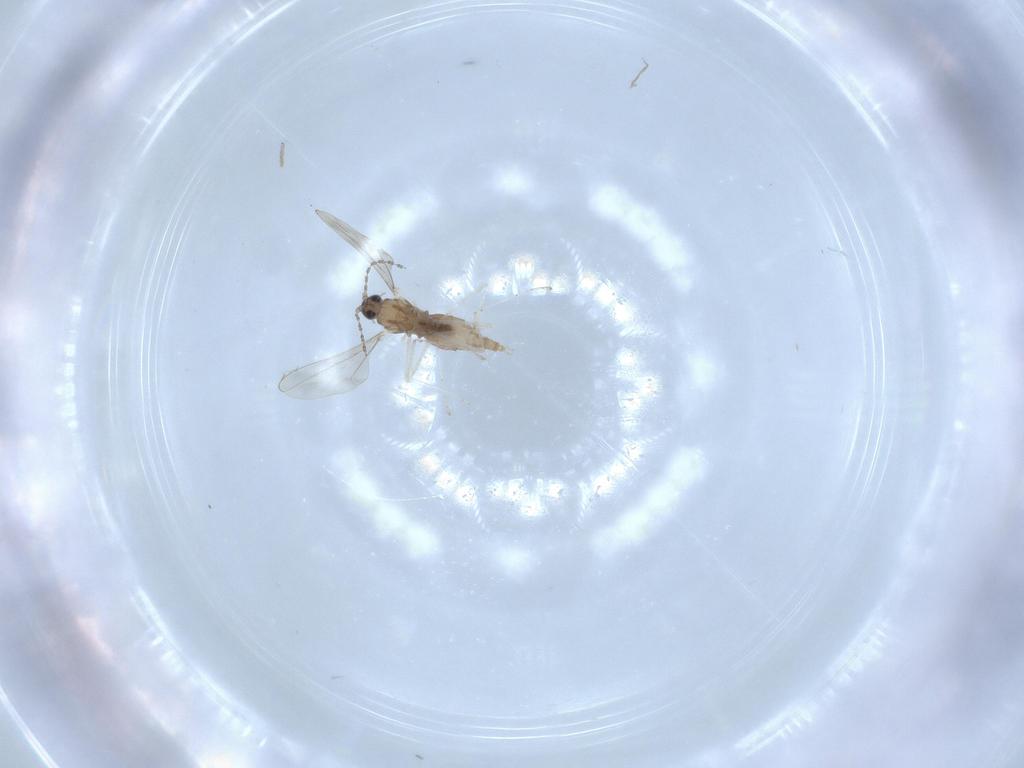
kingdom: Animalia
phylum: Arthropoda
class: Insecta
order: Diptera
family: Cecidomyiidae
